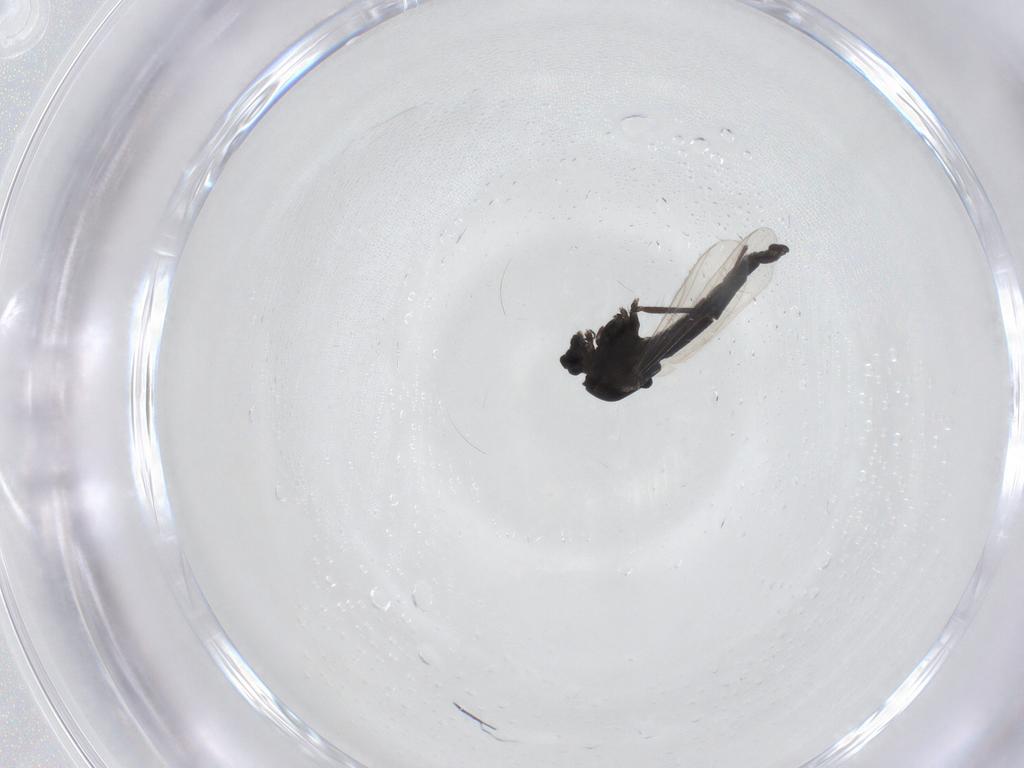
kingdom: Animalia
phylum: Arthropoda
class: Insecta
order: Diptera
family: Chironomidae
